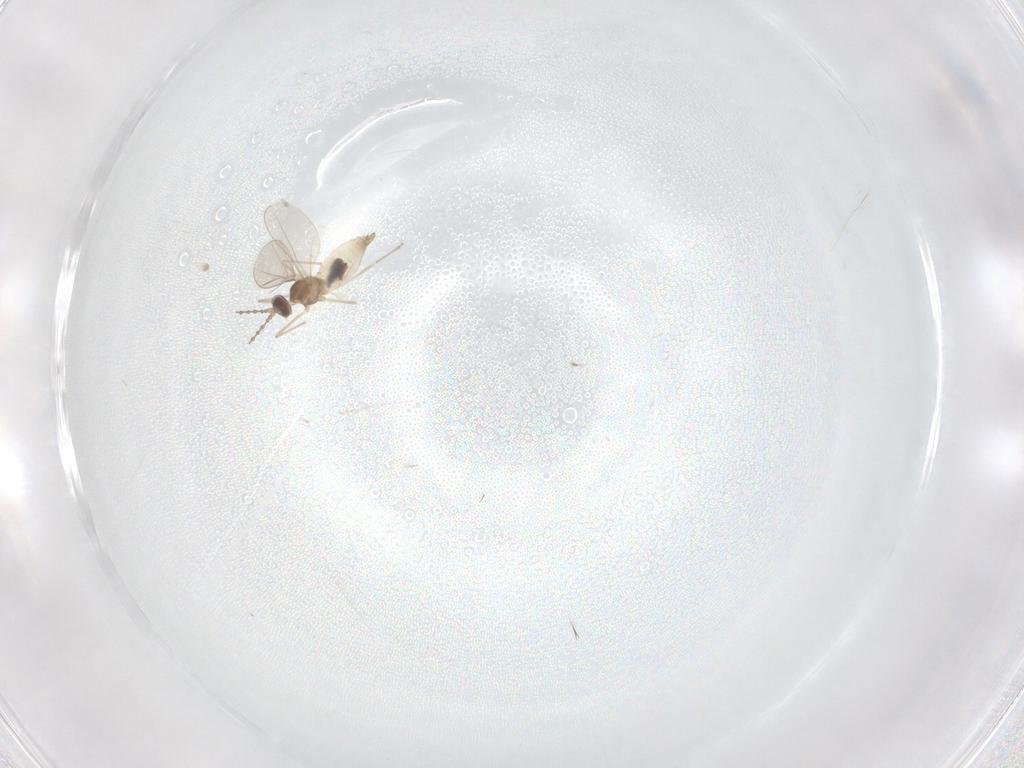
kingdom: Animalia
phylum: Arthropoda
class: Insecta
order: Diptera
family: Cecidomyiidae
